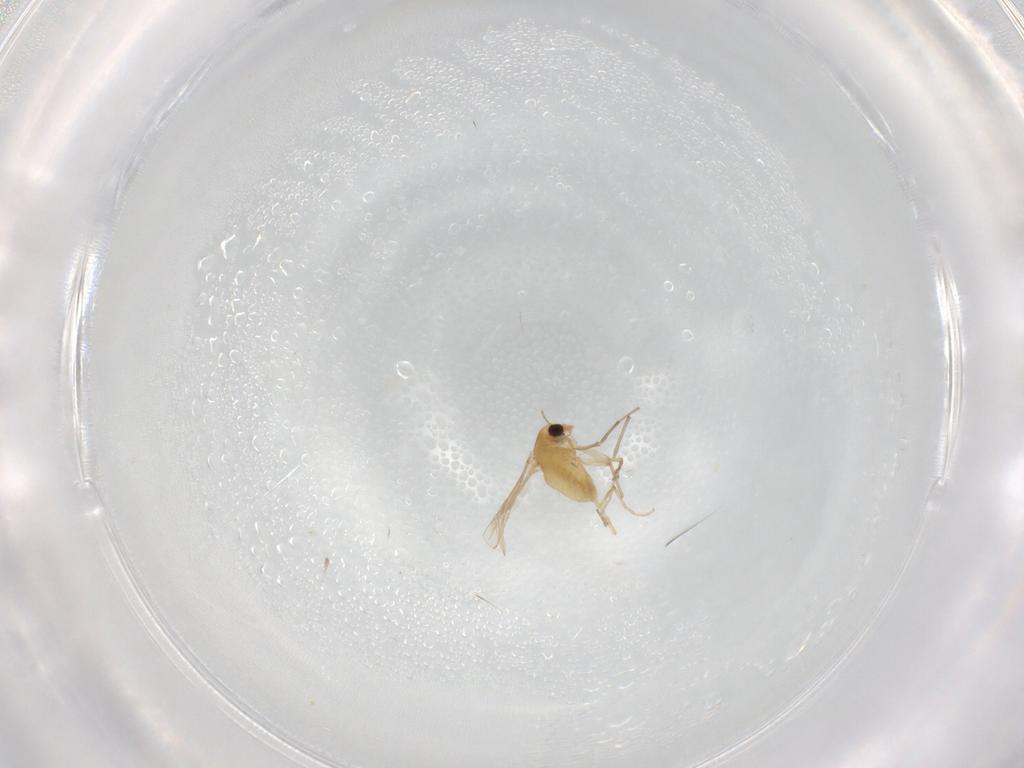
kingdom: Animalia
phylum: Arthropoda
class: Insecta
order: Diptera
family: Chironomidae
